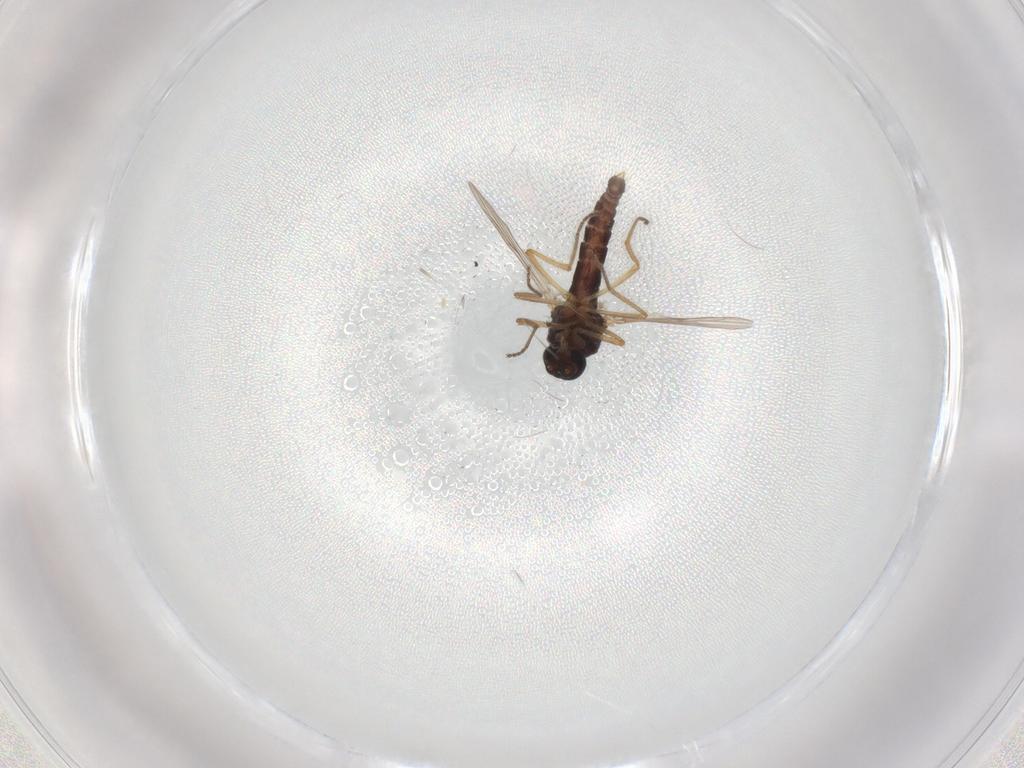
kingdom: Animalia
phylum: Arthropoda
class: Insecta
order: Diptera
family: Ceratopogonidae
